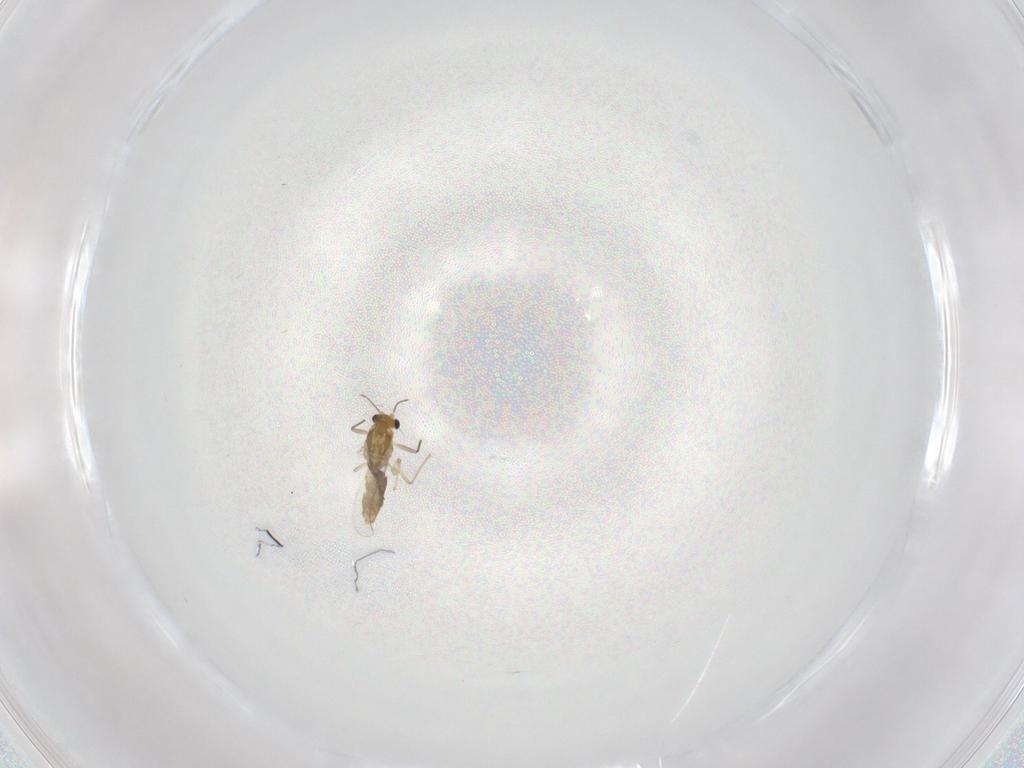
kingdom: Animalia
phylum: Arthropoda
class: Insecta
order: Diptera
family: Chironomidae
